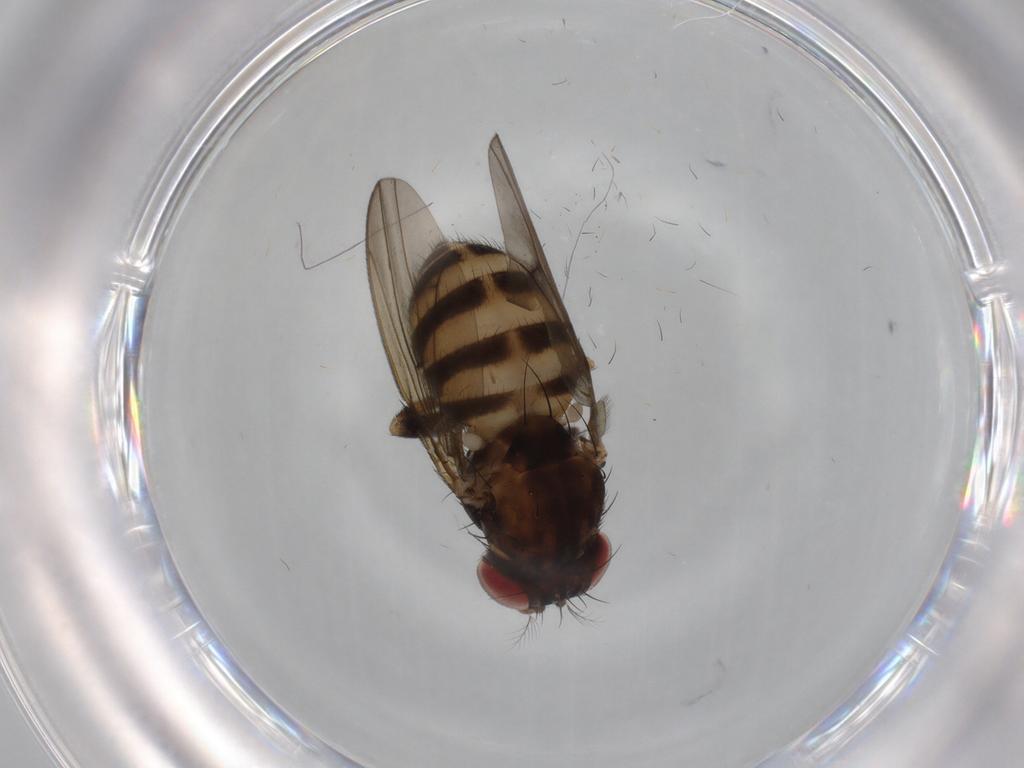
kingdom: Animalia
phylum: Arthropoda
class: Insecta
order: Diptera
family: Drosophilidae
